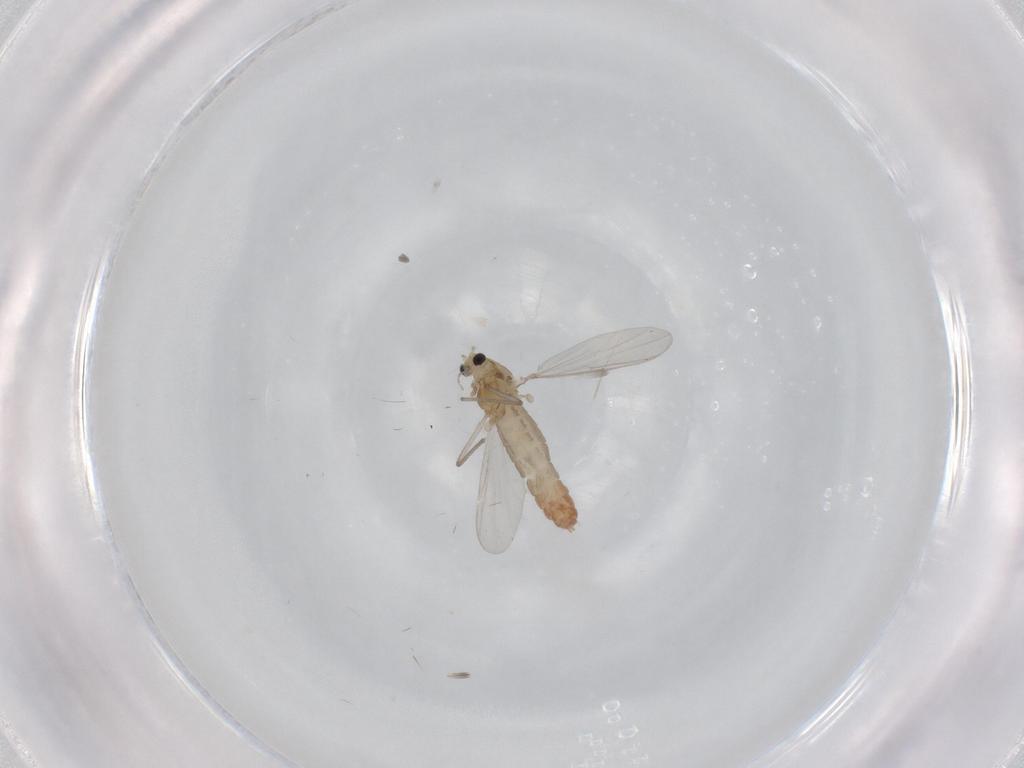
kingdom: Animalia
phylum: Arthropoda
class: Insecta
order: Diptera
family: Chironomidae
